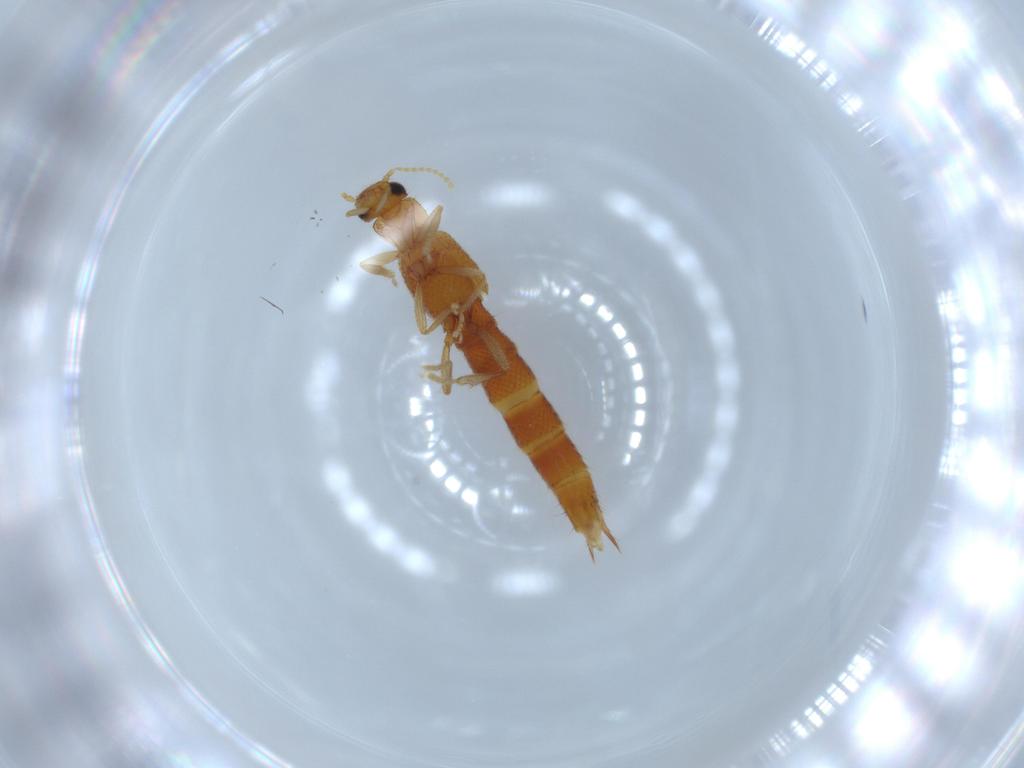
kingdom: Animalia
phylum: Arthropoda
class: Insecta
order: Coleoptera
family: Staphylinidae
